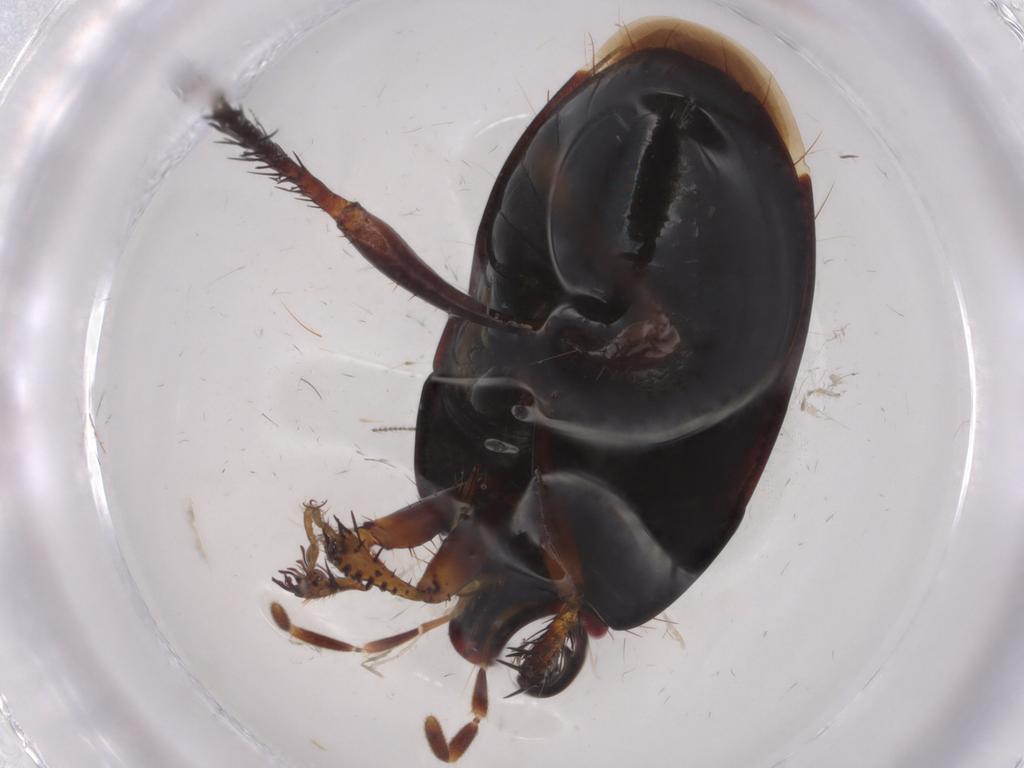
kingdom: Animalia
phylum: Arthropoda
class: Insecta
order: Hemiptera
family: Cydnidae
